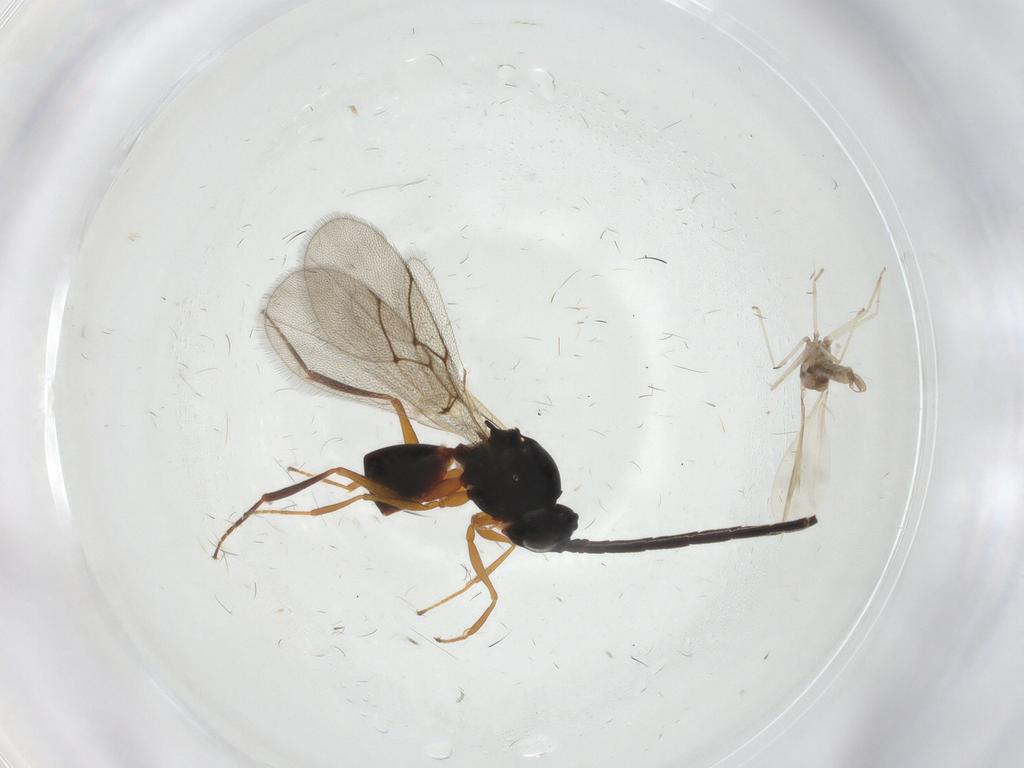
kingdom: Animalia
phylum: Arthropoda
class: Insecta
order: Hymenoptera
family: Figitidae
